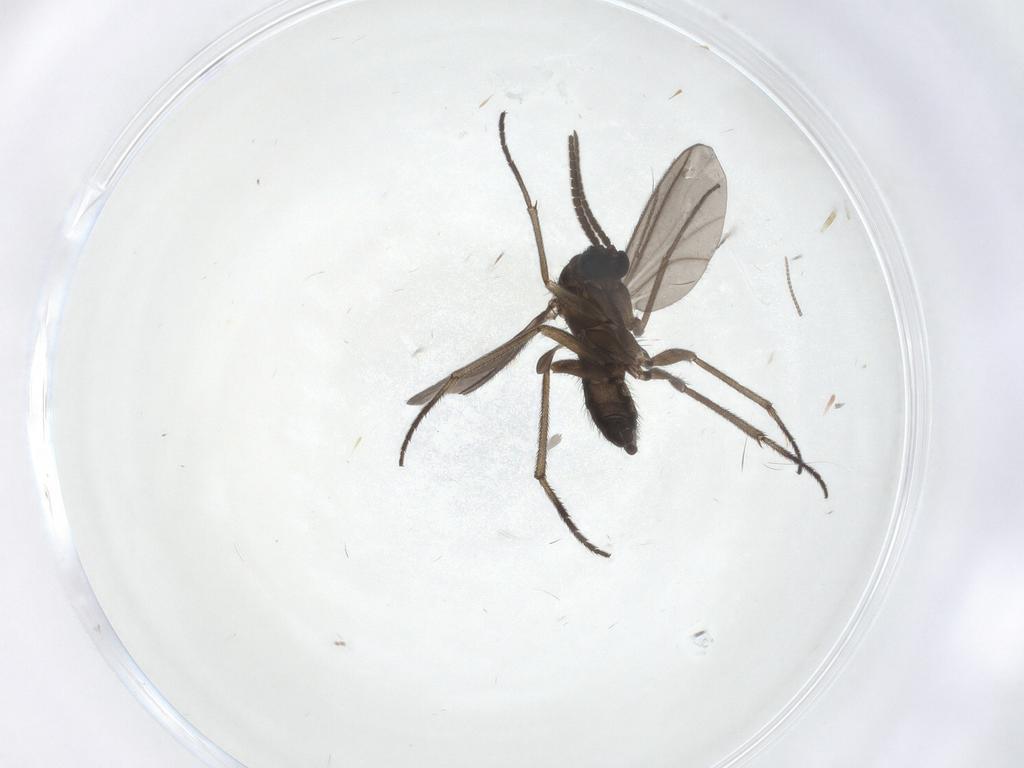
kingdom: Animalia
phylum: Arthropoda
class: Insecta
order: Diptera
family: Sciaridae
